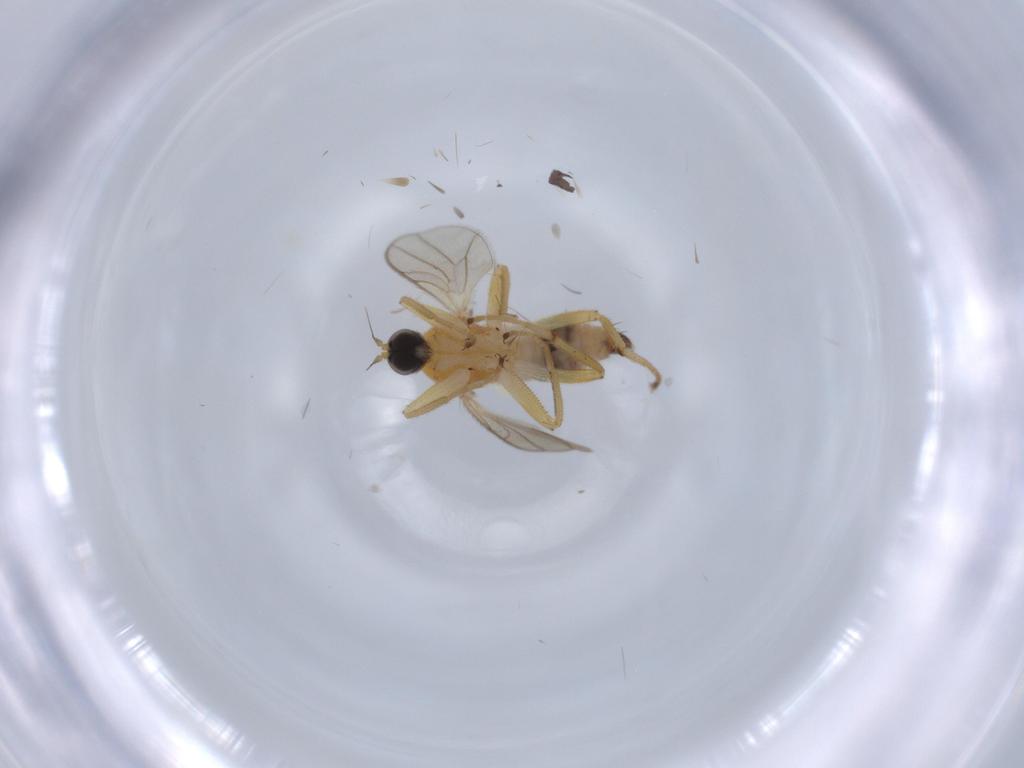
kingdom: Animalia
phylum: Arthropoda
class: Insecta
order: Diptera
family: Hybotidae
